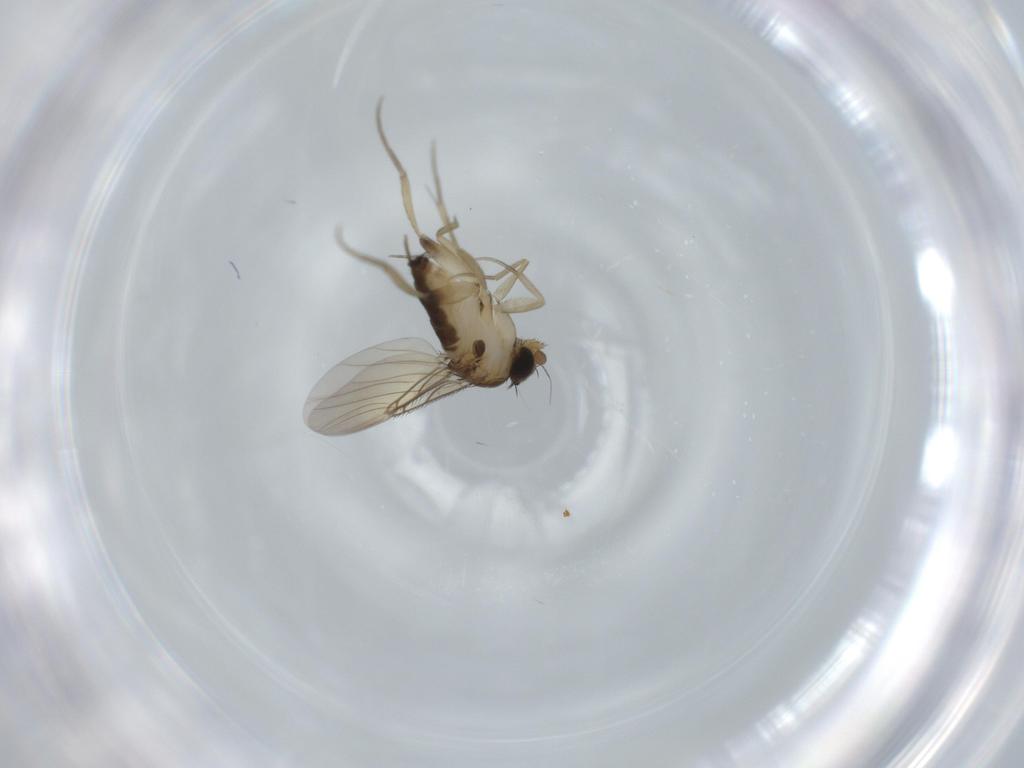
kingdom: Animalia
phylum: Arthropoda
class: Insecta
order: Diptera
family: Phoridae
